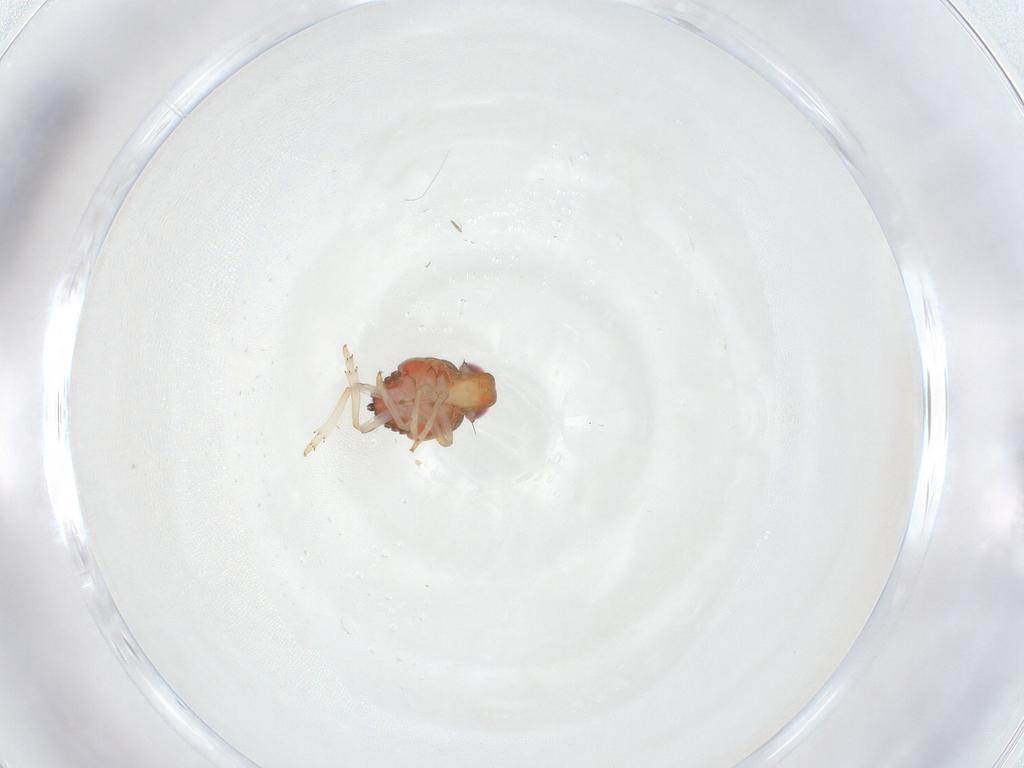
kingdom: Animalia
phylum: Arthropoda
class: Insecta
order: Hemiptera
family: Issidae
